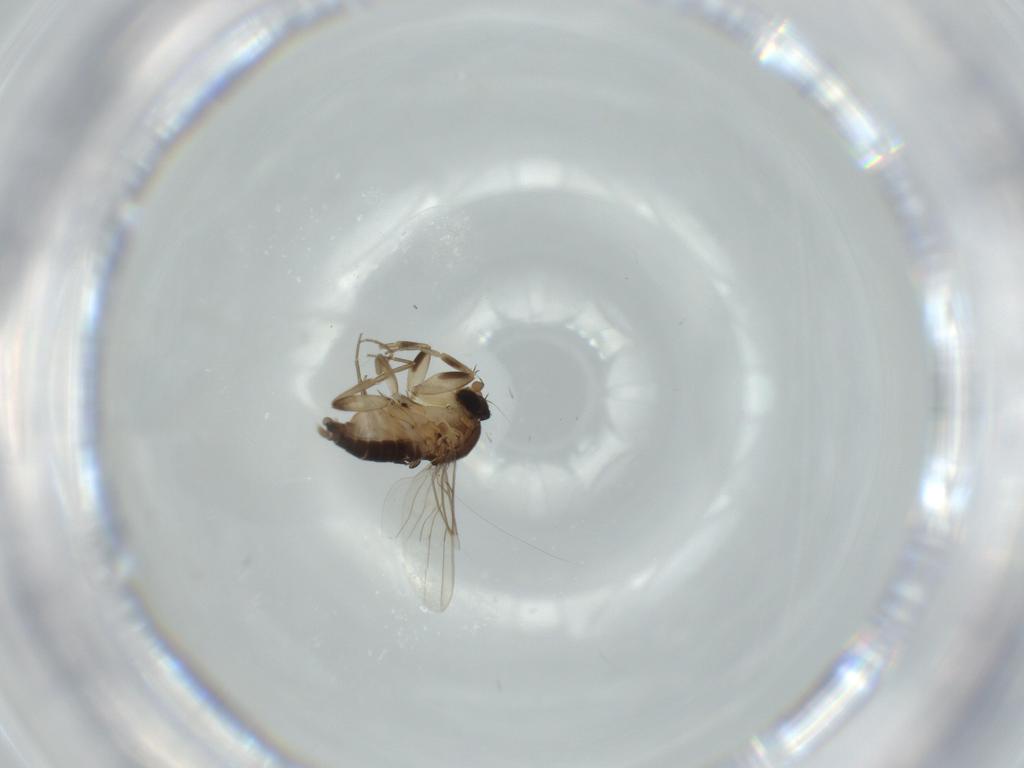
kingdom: Animalia
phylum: Arthropoda
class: Insecta
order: Diptera
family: Phoridae
